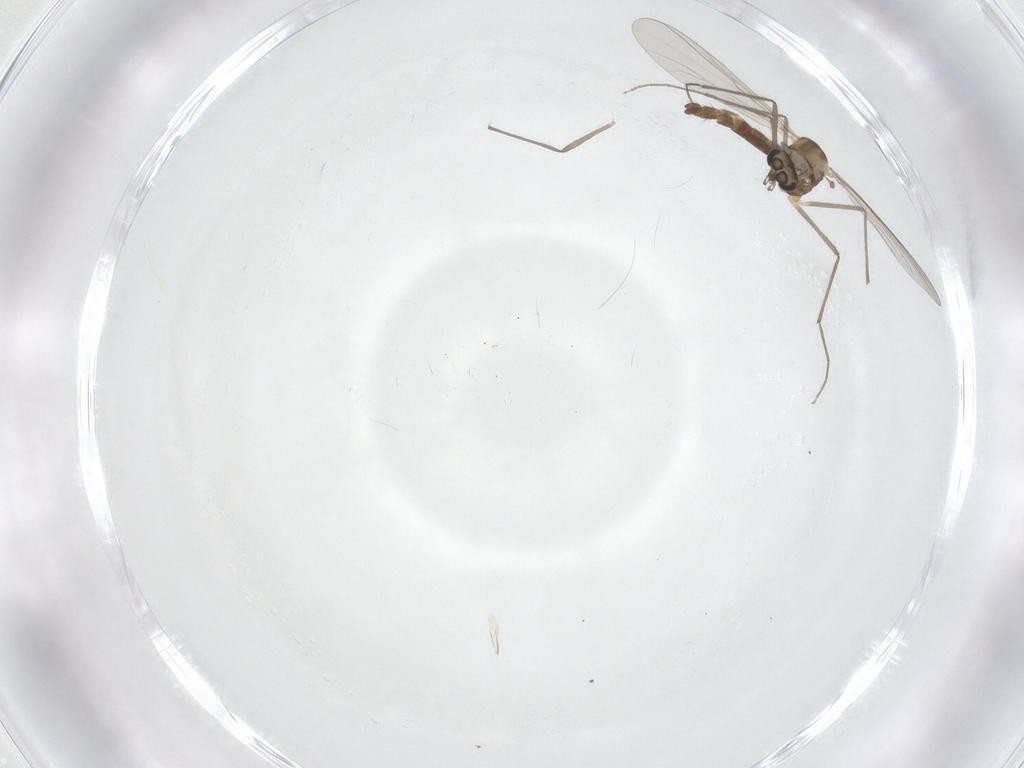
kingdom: Animalia
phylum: Arthropoda
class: Insecta
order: Diptera
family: Chironomidae
